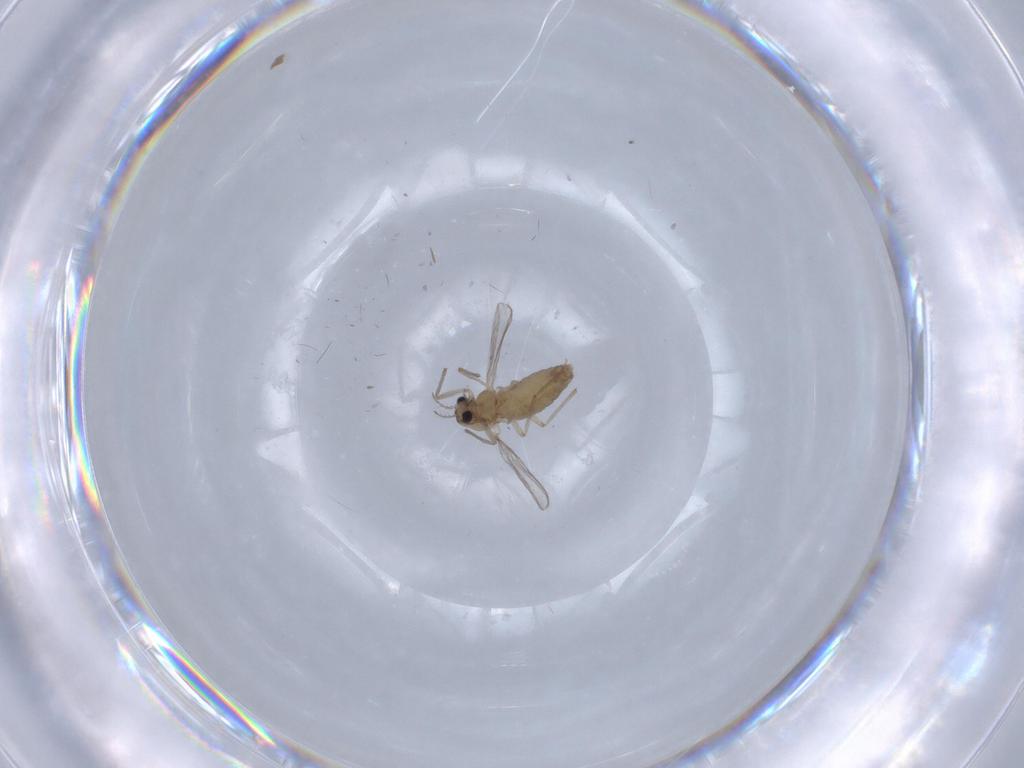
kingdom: Animalia
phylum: Arthropoda
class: Insecta
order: Diptera
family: Chironomidae
